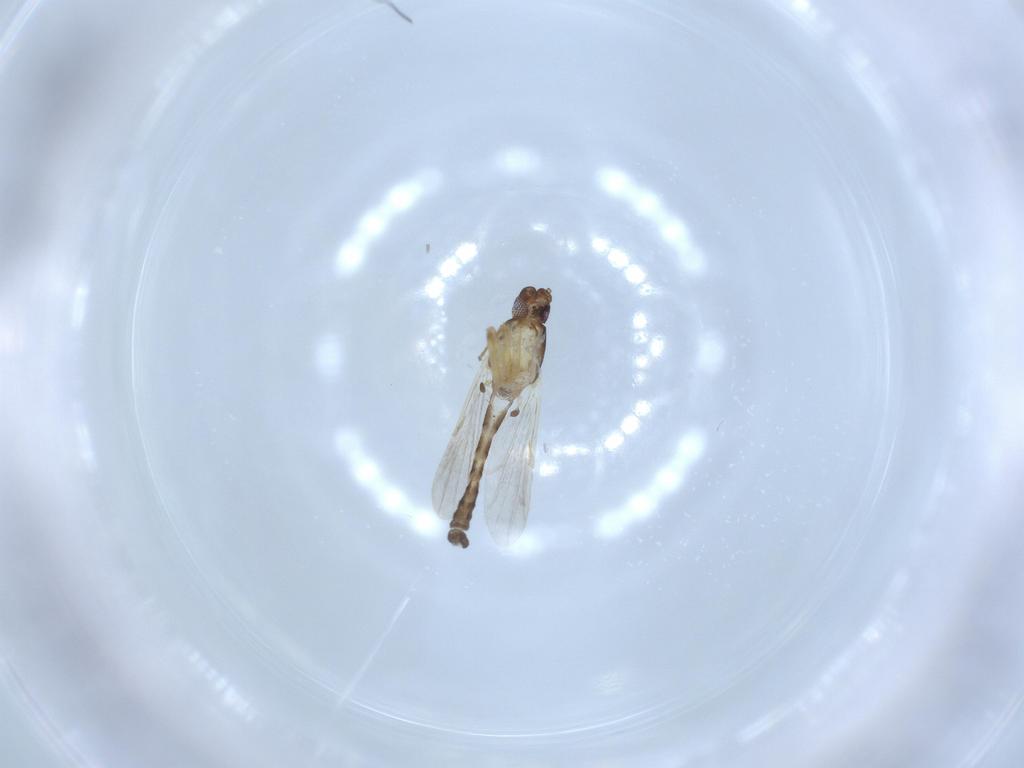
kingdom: Animalia
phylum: Arthropoda
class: Insecta
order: Diptera
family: Ceratopogonidae
